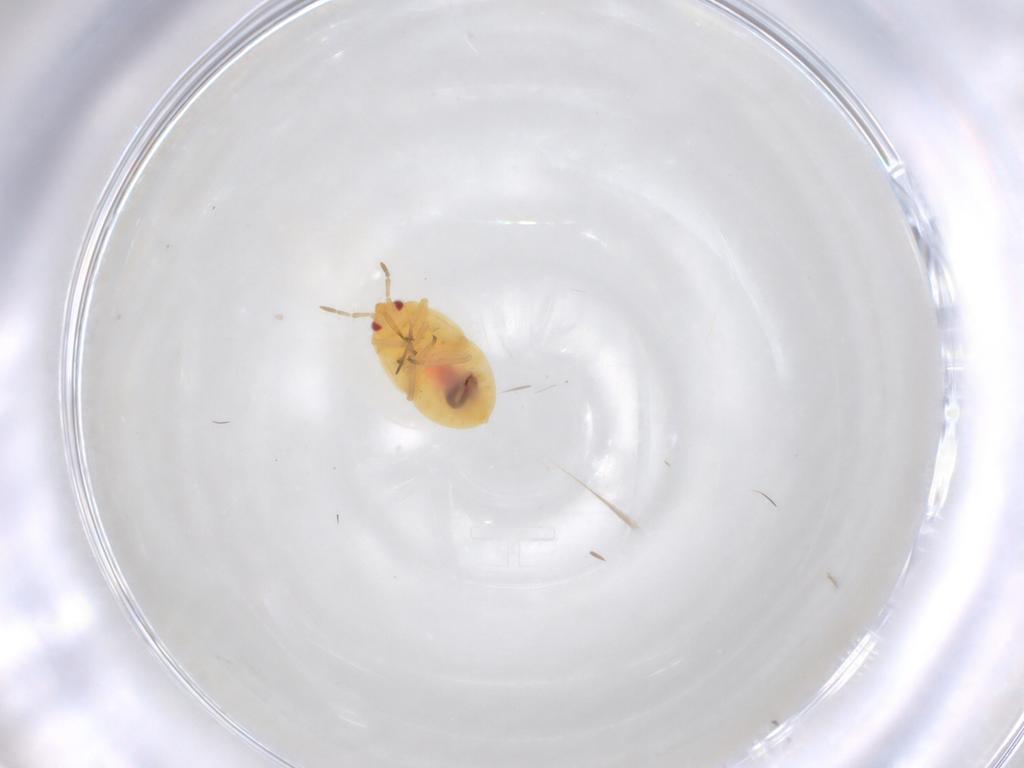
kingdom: Animalia
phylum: Arthropoda
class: Insecta
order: Hemiptera
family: Anthocoridae
